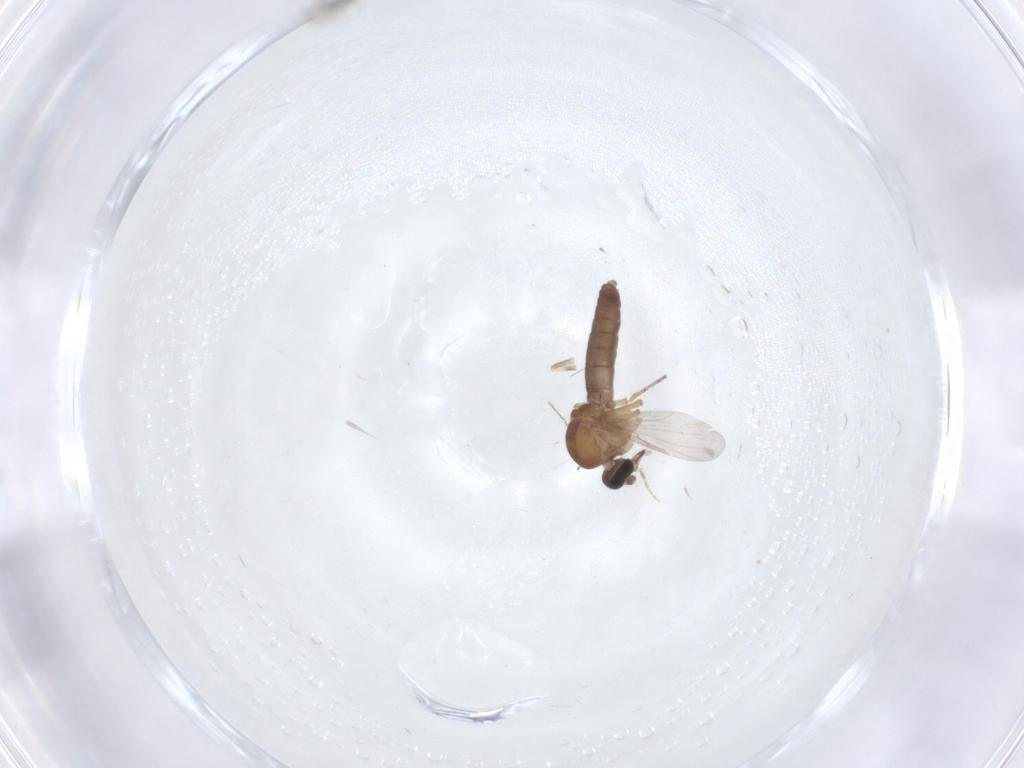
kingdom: Animalia
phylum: Arthropoda
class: Insecta
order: Diptera
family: Ceratopogonidae
